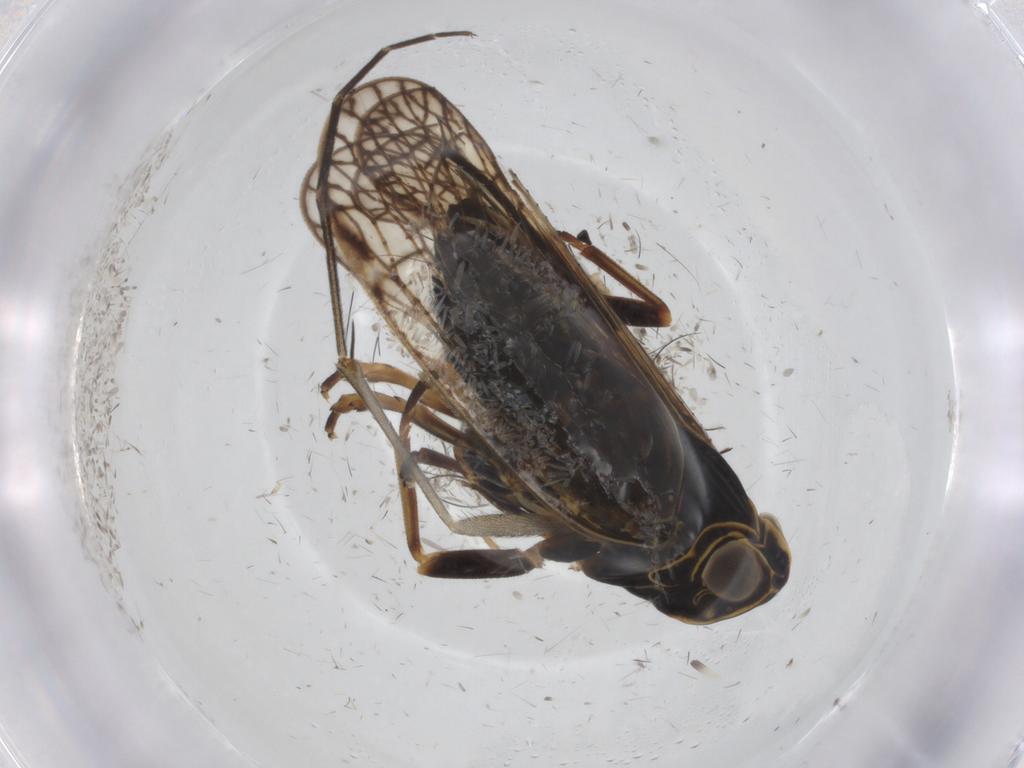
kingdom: Animalia
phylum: Arthropoda
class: Insecta
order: Hemiptera
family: Cixiidae
